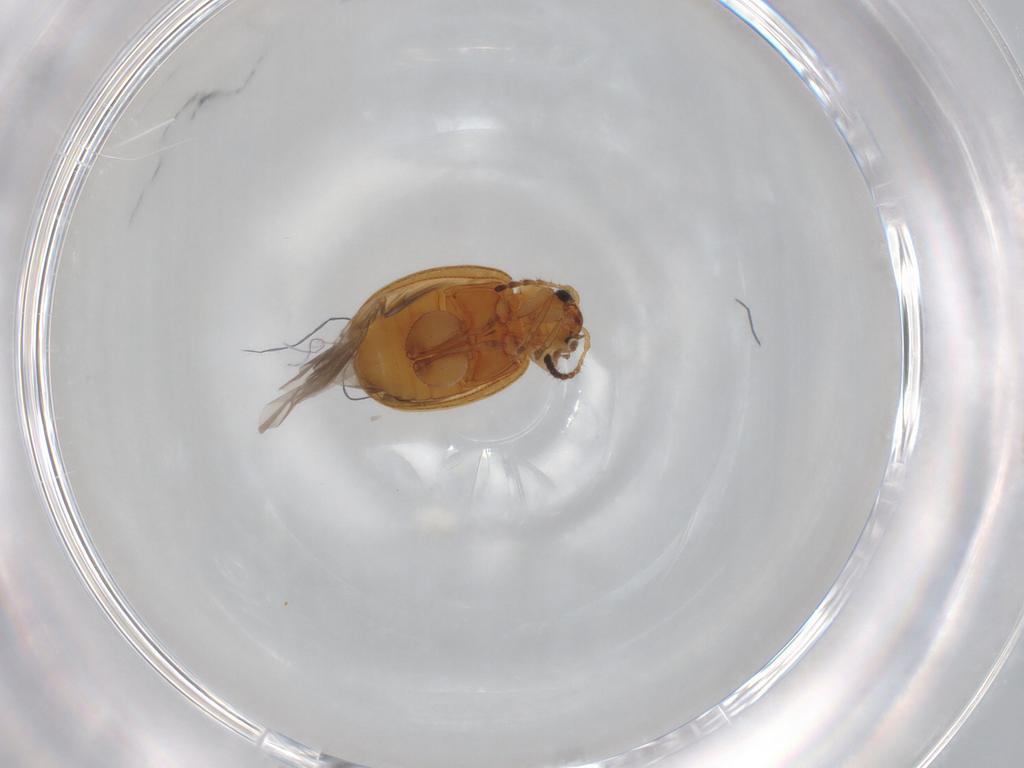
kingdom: Animalia
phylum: Arthropoda
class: Insecta
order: Coleoptera
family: Chrysomelidae
